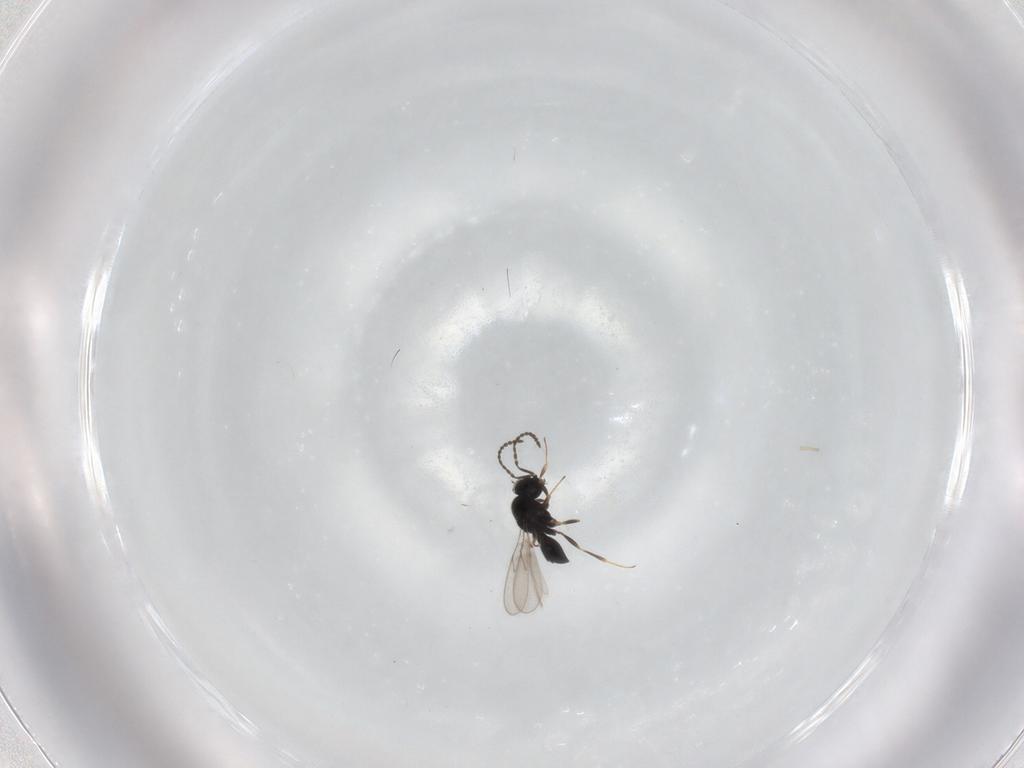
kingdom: Animalia
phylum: Arthropoda
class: Insecta
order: Hymenoptera
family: Scelionidae
